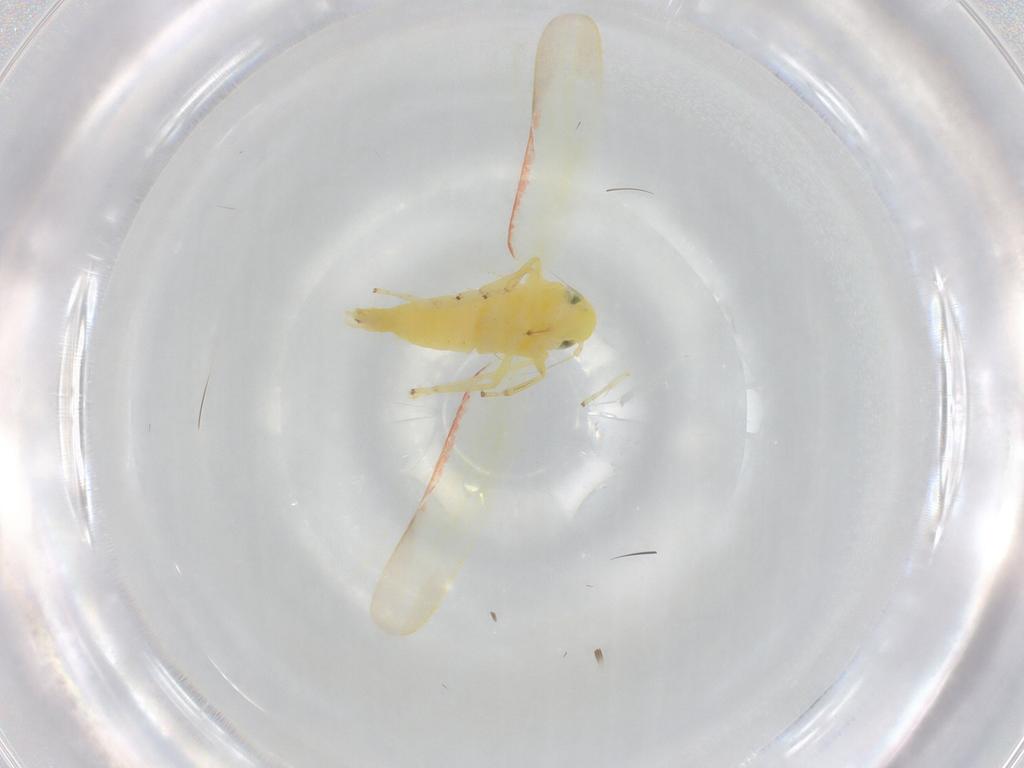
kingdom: Animalia
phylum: Arthropoda
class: Insecta
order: Hemiptera
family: Cicadellidae
